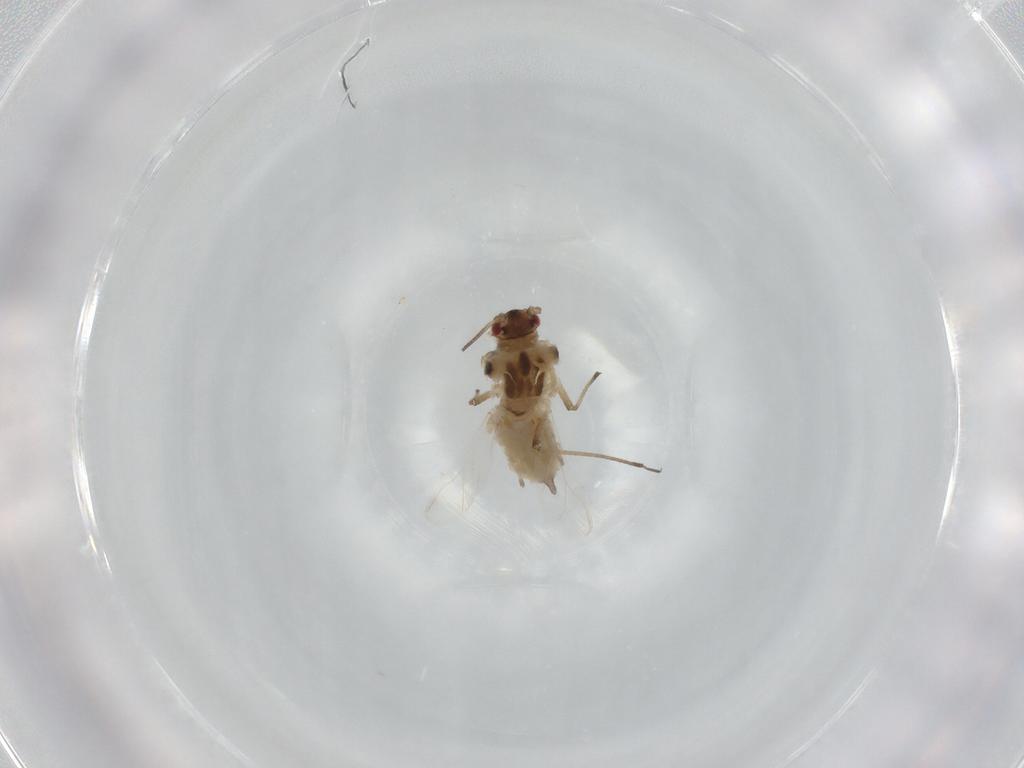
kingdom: Animalia
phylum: Arthropoda
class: Insecta
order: Hemiptera
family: Aphididae
